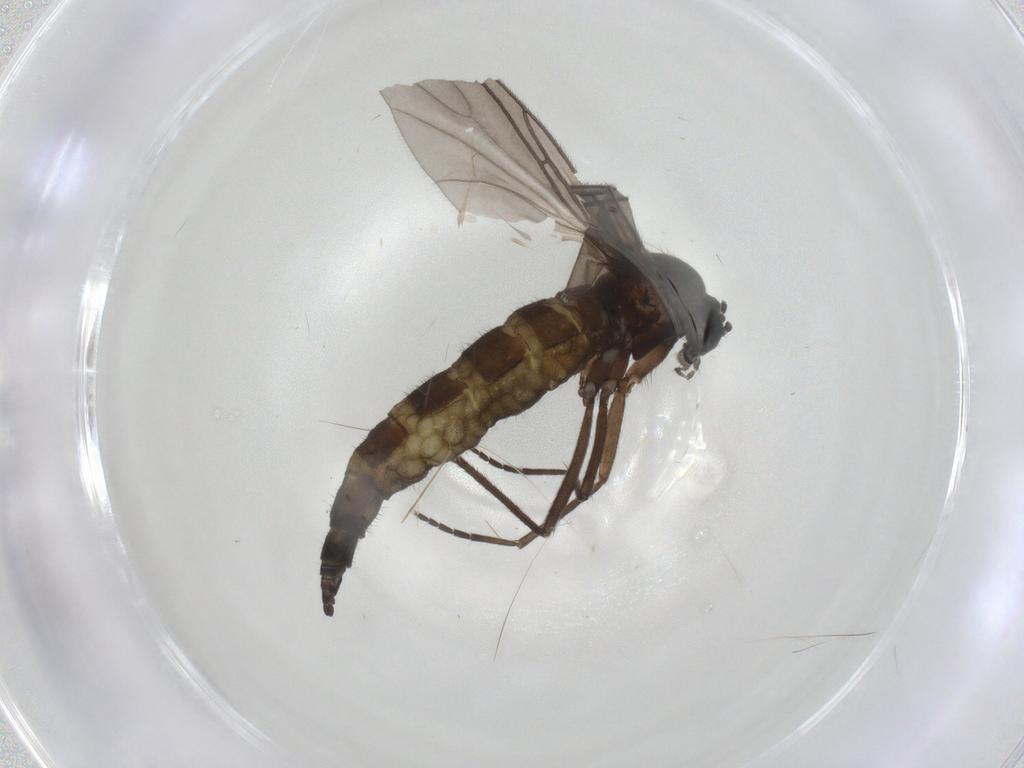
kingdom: Animalia
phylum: Arthropoda
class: Insecta
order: Diptera
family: Sciaridae
